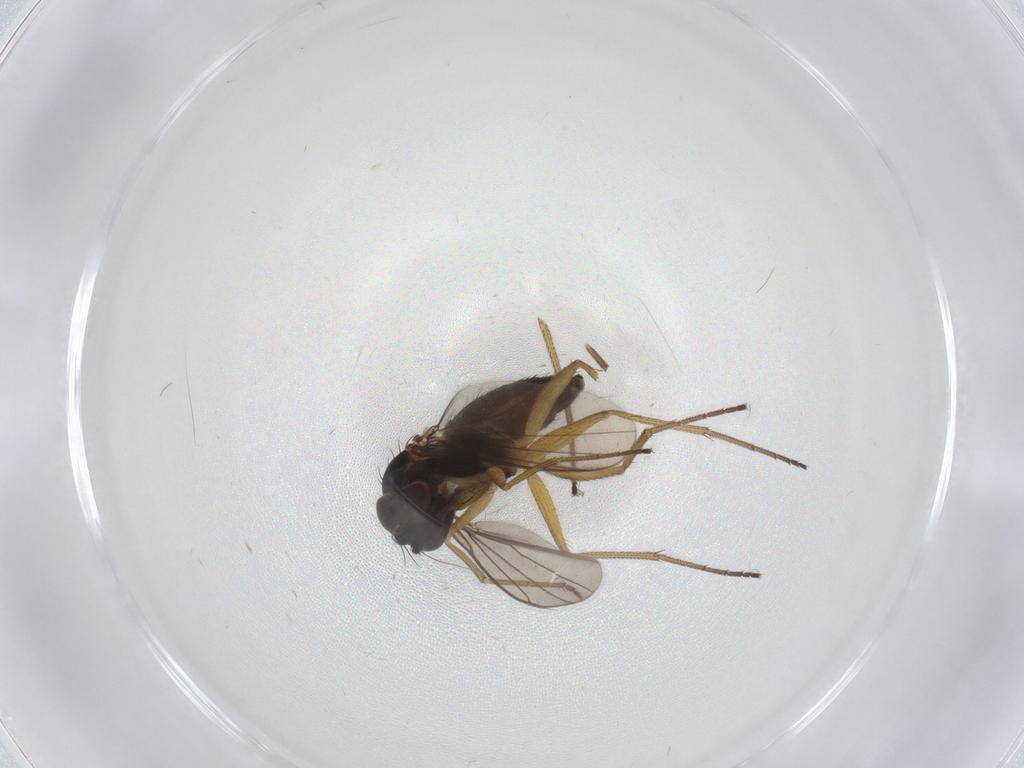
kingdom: Animalia
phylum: Arthropoda
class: Insecta
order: Diptera
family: Dolichopodidae
